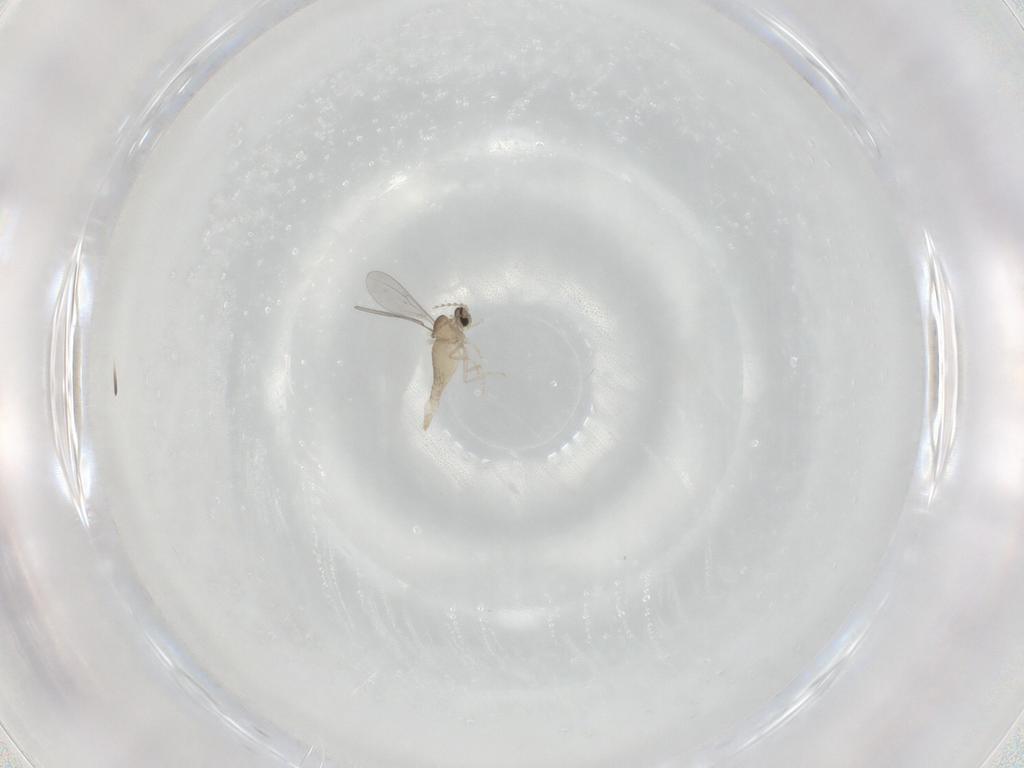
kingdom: Animalia
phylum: Arthropoda
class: Insecta
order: Diptera
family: Cecidomyiidae
